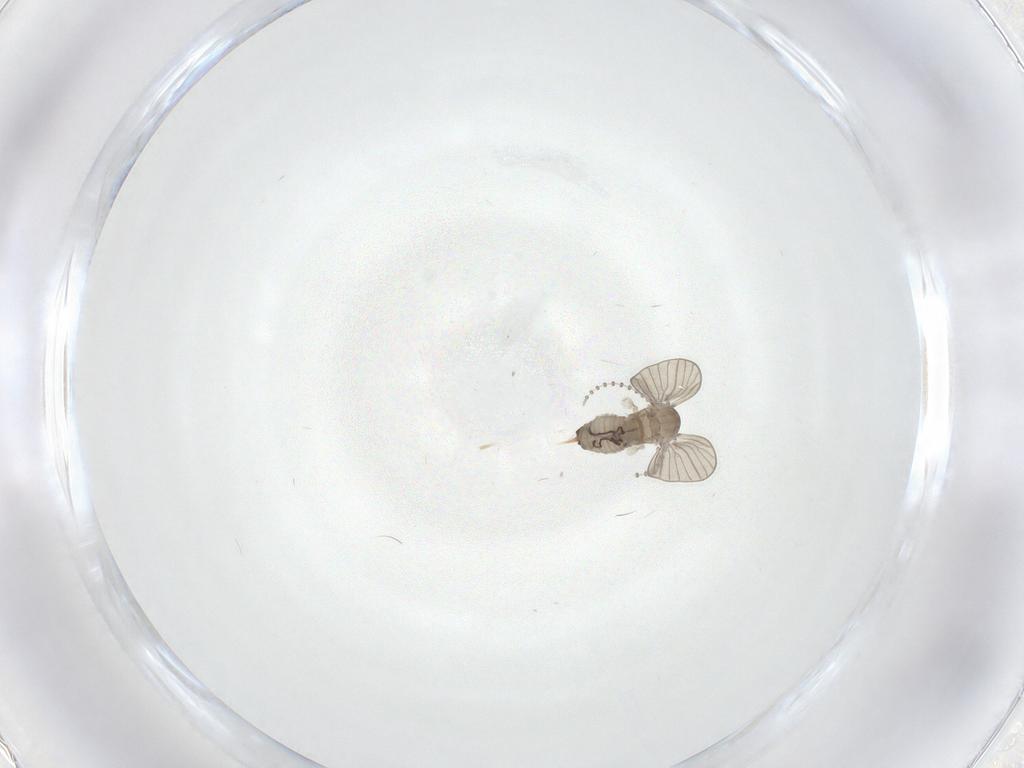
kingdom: Animalia
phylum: Arthropoda
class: Insecta
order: Diptera
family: Psychodidae
